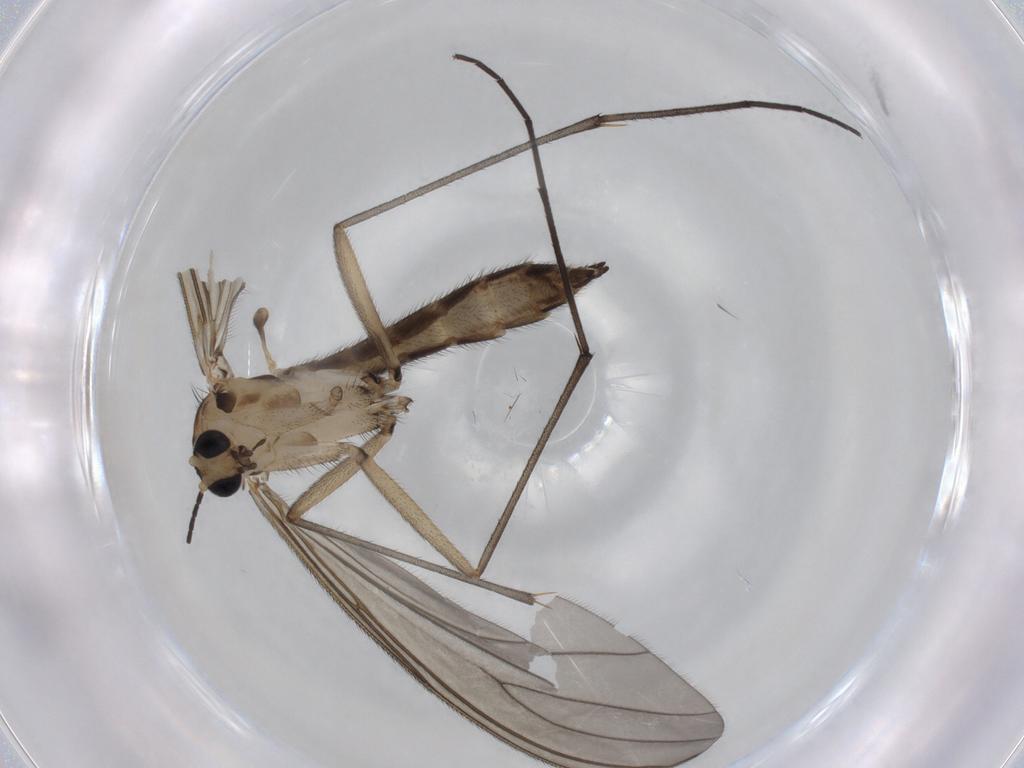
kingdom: Animalia
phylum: Arthropoda
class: Insecta
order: Diptera
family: Sciaridae
